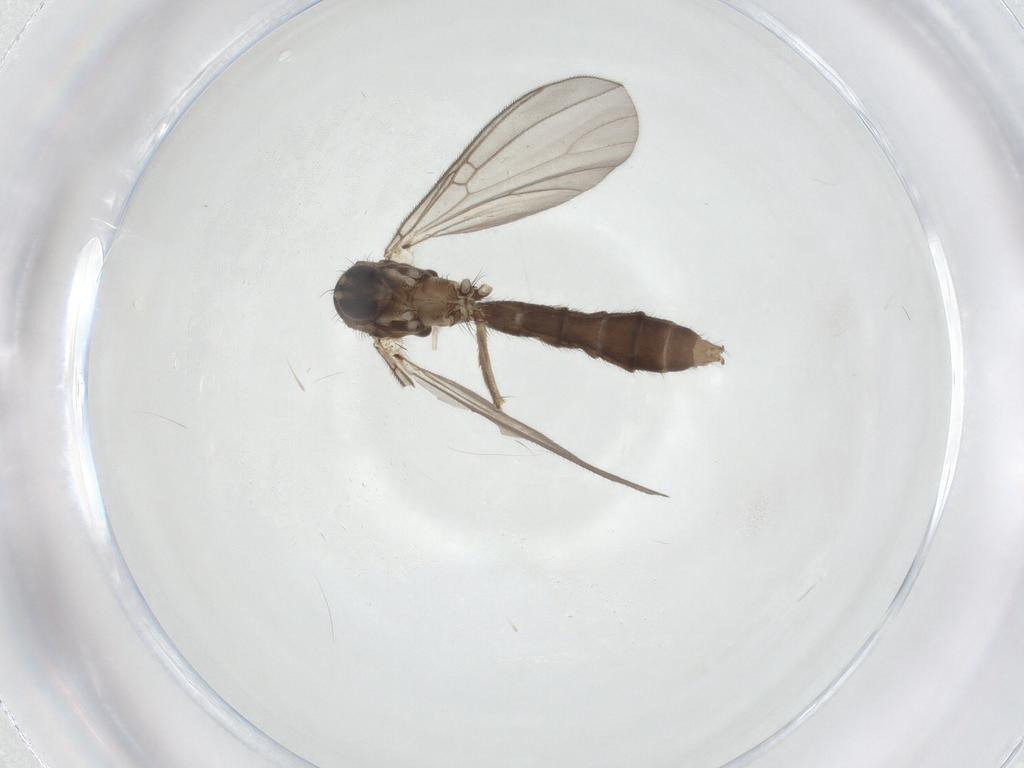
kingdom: Animalia
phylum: Arthropoda
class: Insecta
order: Diptera
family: Mycetophilidae
